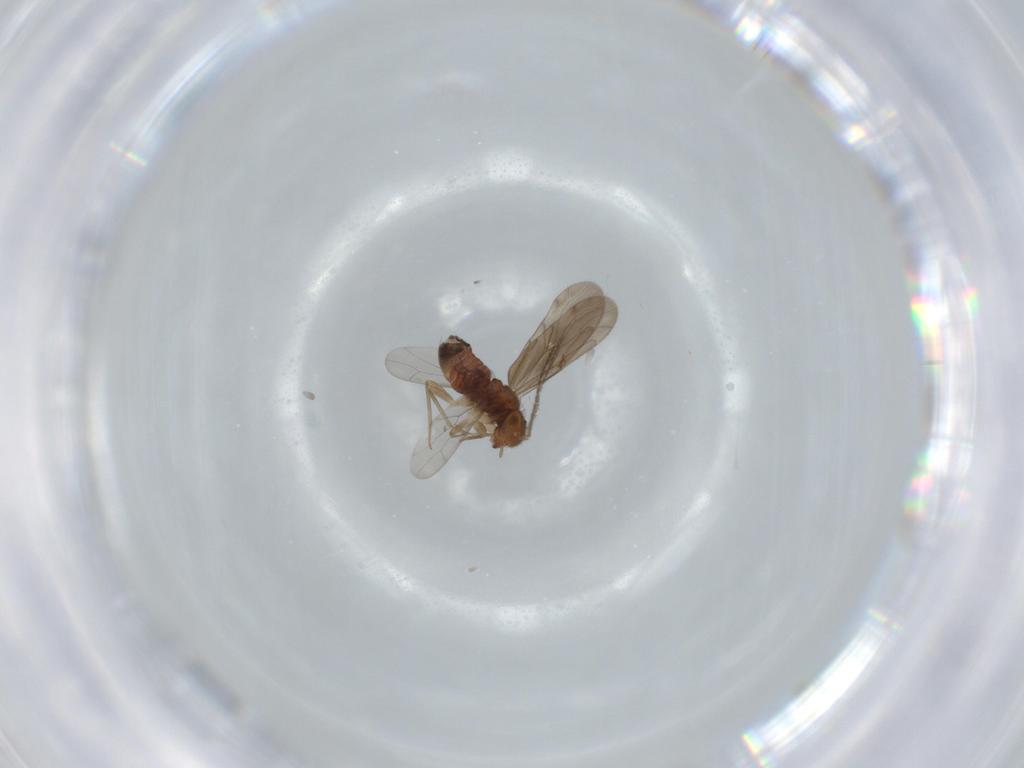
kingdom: Animalia
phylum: Arthropoda
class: Insecta
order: Psocodea
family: Ectopsocidae
